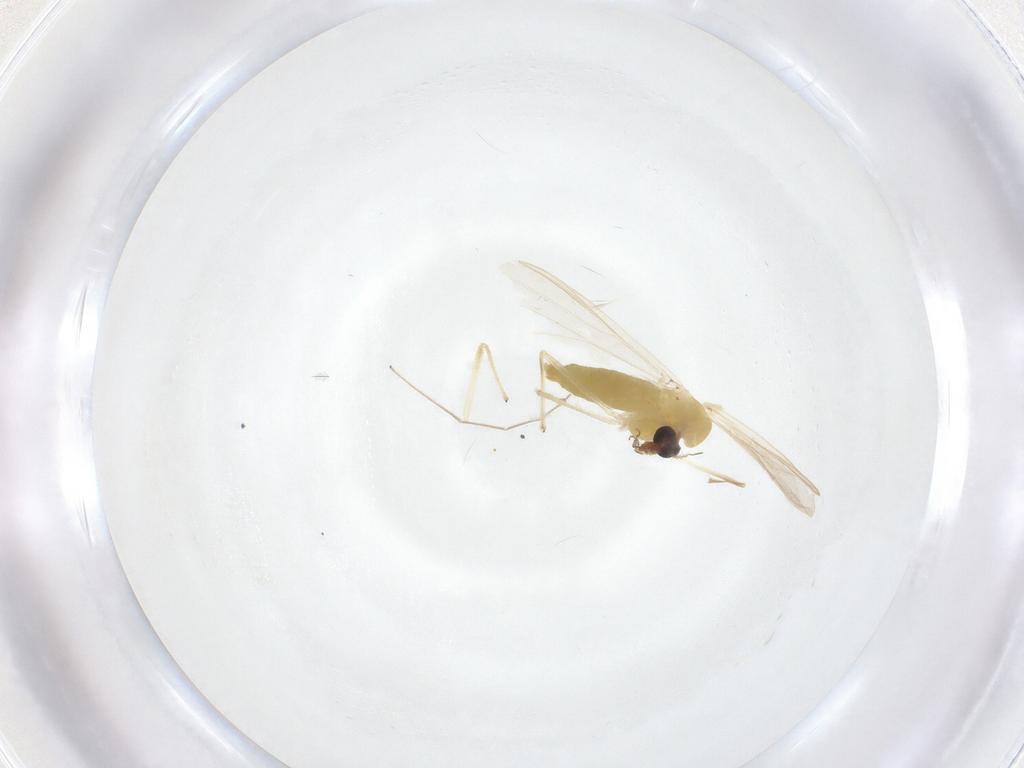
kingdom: Animalia
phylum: Arthropoda
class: Insecta
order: Diptera
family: Chironomidae
